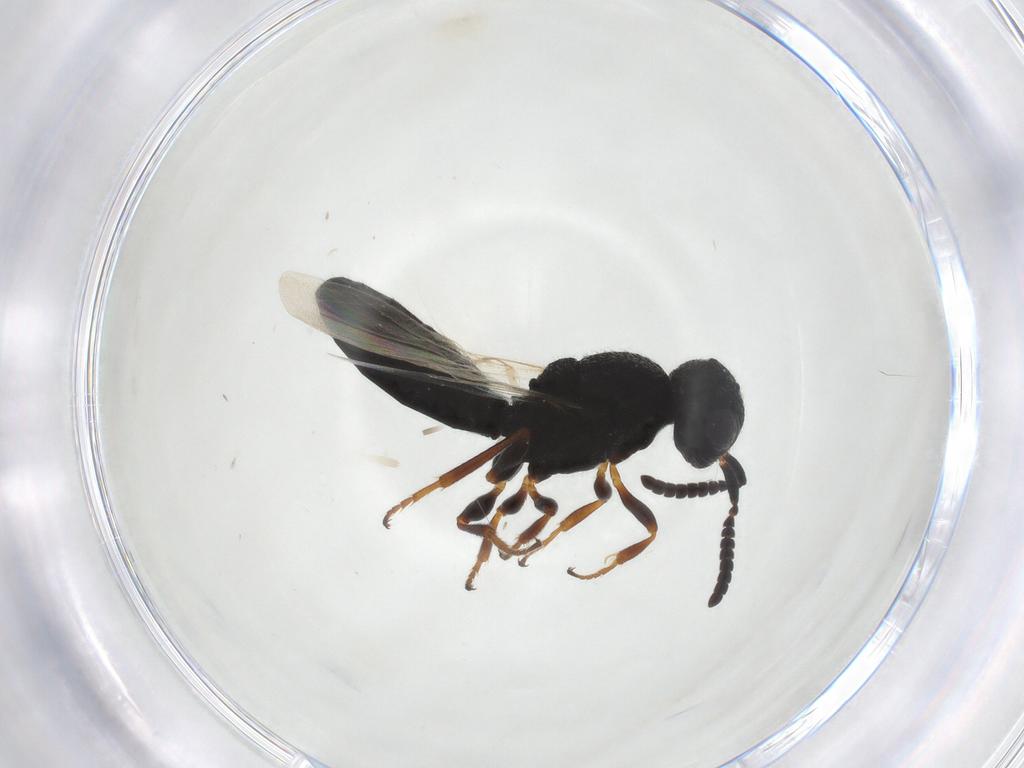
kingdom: Animalia
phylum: Arthropoda
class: Insecta
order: Hymenoptera
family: Scelionidae
